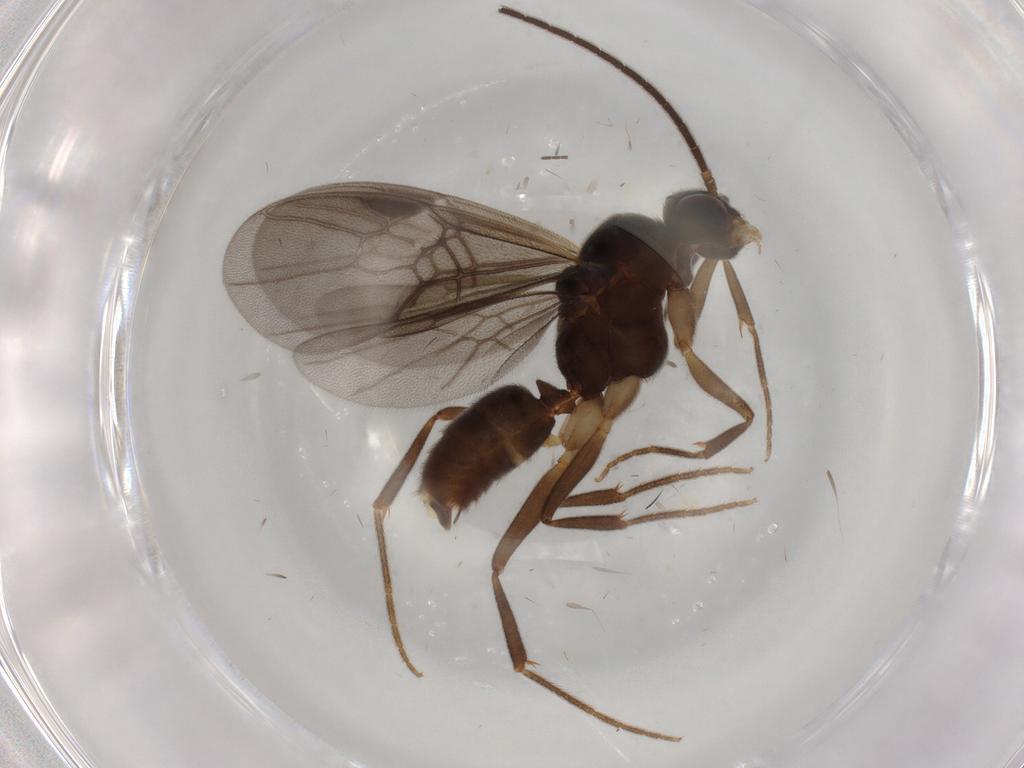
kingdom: Animalia
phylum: Arthropoda
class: Insecta
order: Hymenoptera
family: Formicidae
